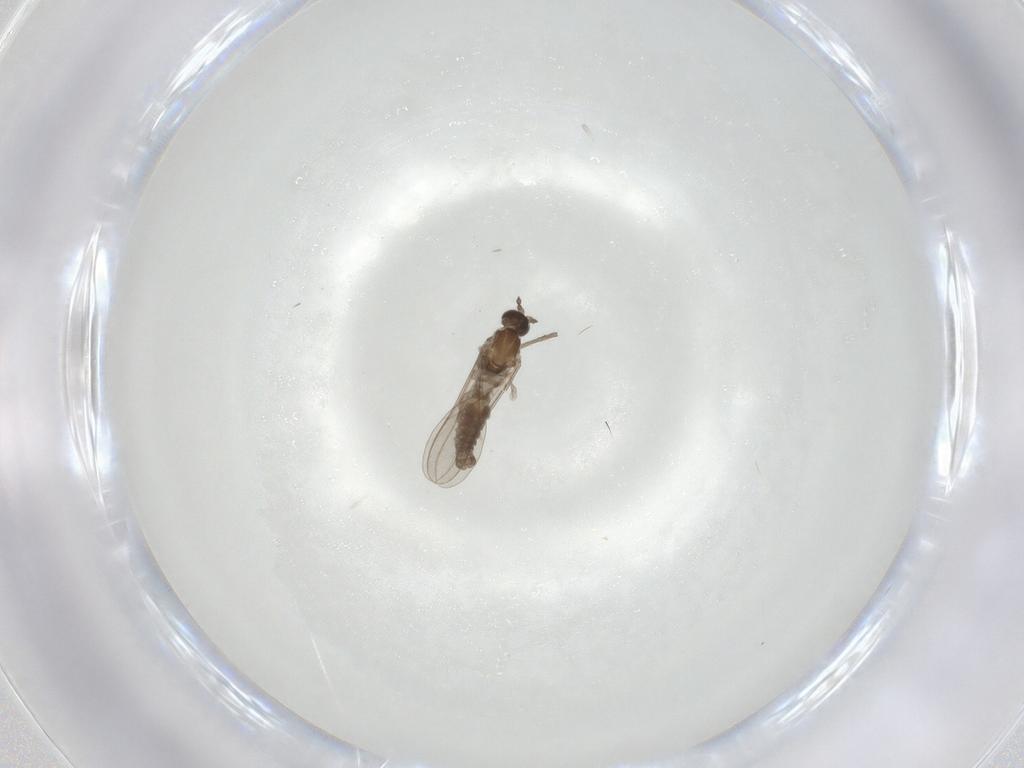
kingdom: Animalia
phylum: Arthropoda
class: Insecta
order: Diptera
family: Cecidomyiidae
